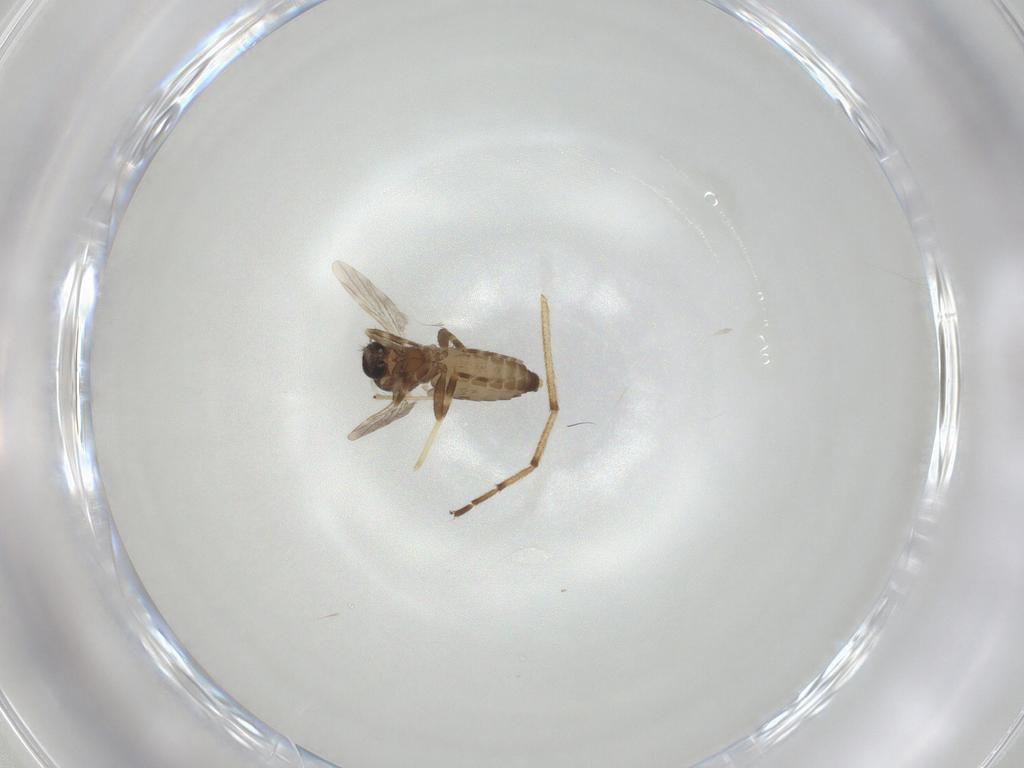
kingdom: Animalia
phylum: Arthropoda
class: Insecta
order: Diptera
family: Ceratopogonidae
